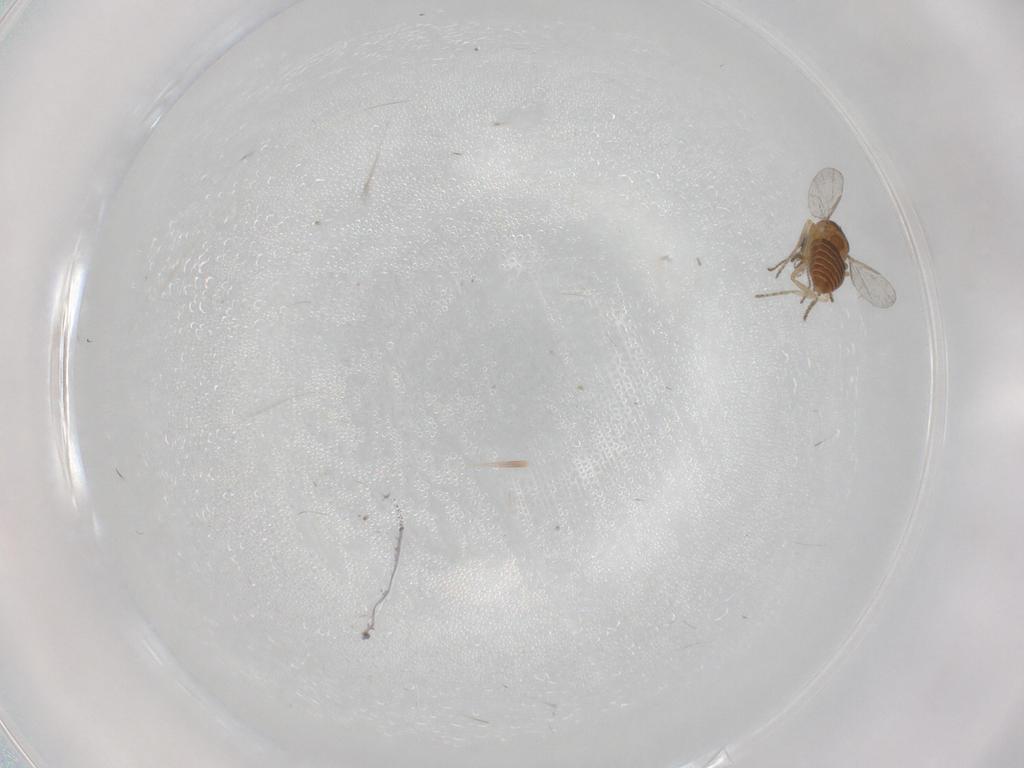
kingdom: Animalia
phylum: Arthropoda
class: Insecta
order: Diptera
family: Ceratopogonidae
